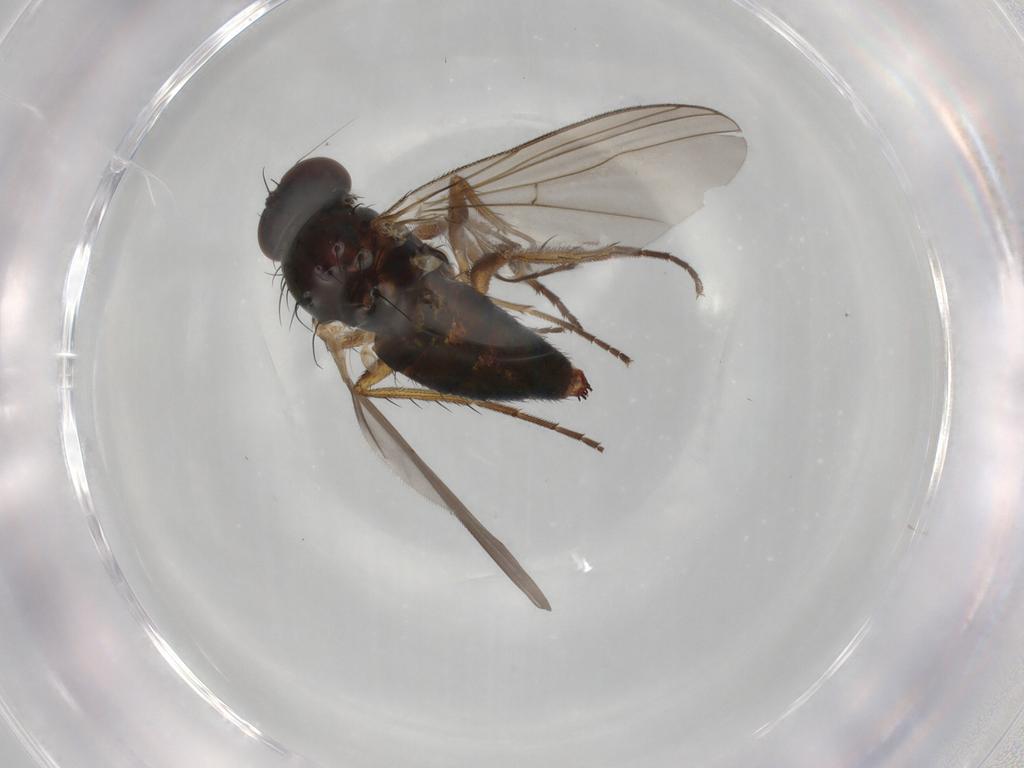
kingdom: Animalia
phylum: Arthropoda
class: Insecta
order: Diptera
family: Dolichopodidae
